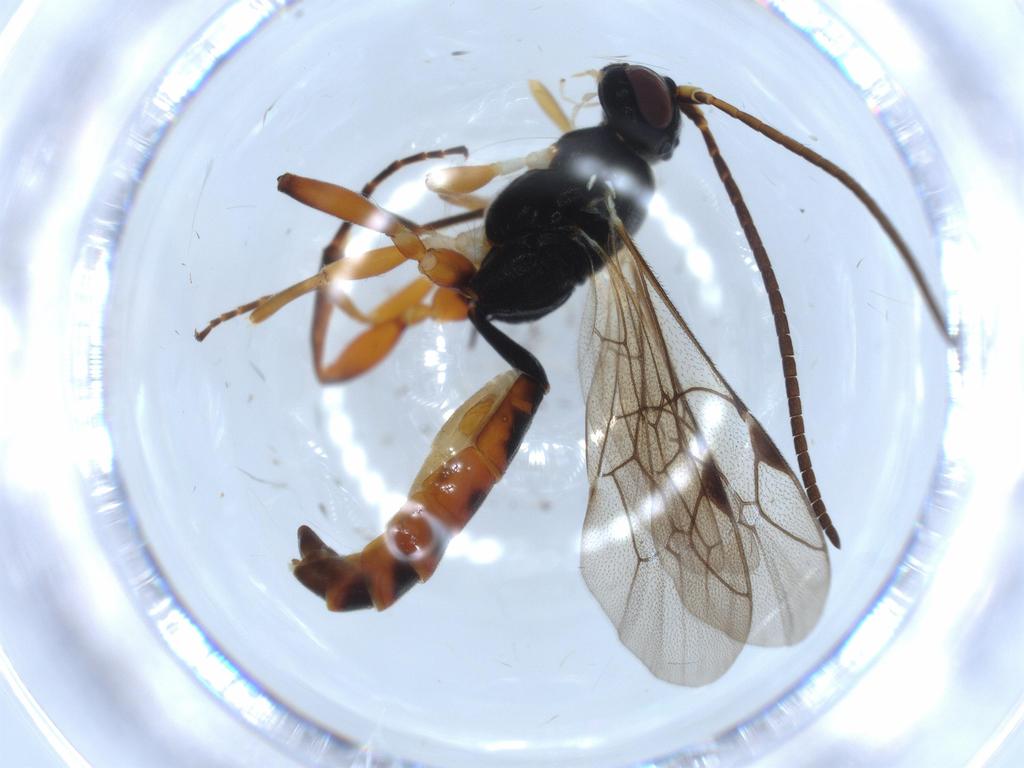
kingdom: Animalia
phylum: Arthropoda
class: Insecta
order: Hymenoptera
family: Ichneumonidae
